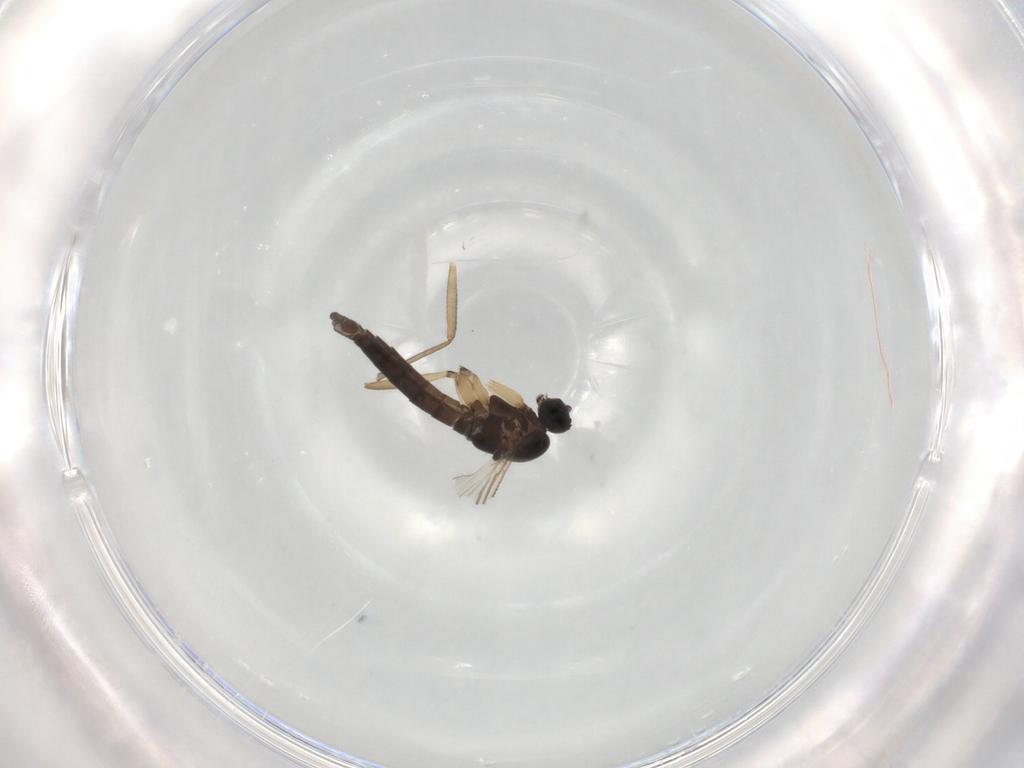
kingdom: Animalia
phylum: Arthropoda
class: Insecta
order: Diptera
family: Sciaridae
